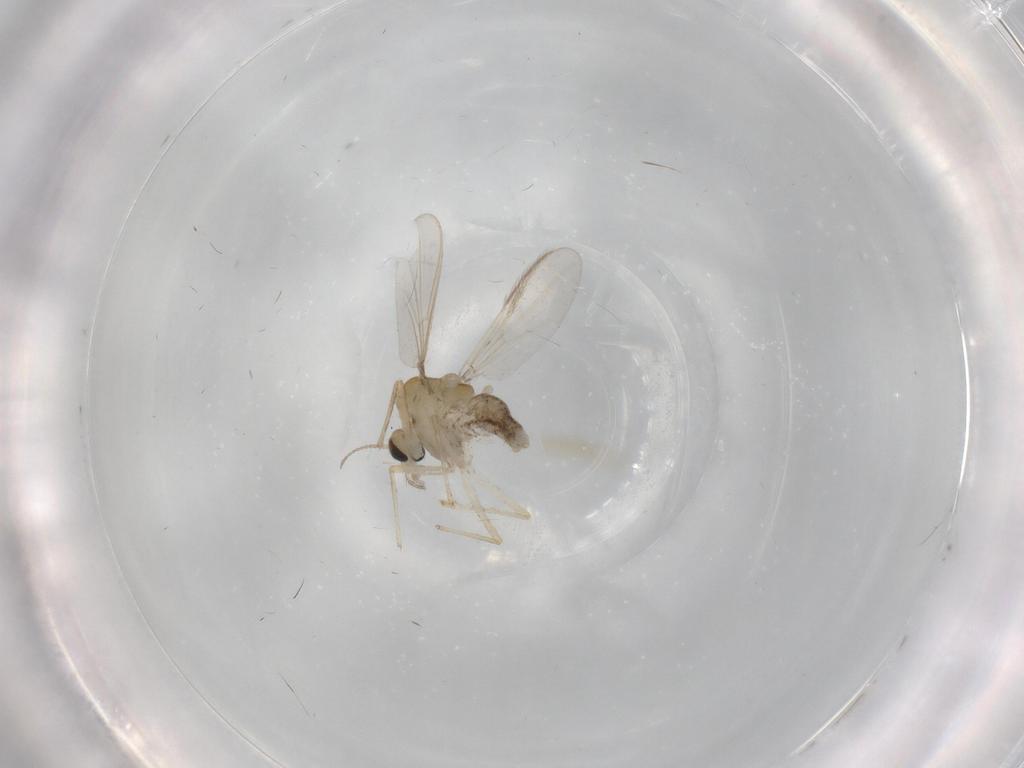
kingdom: Animalia
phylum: Arthropoda
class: Insecta
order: Diptera
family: Chironomidae
